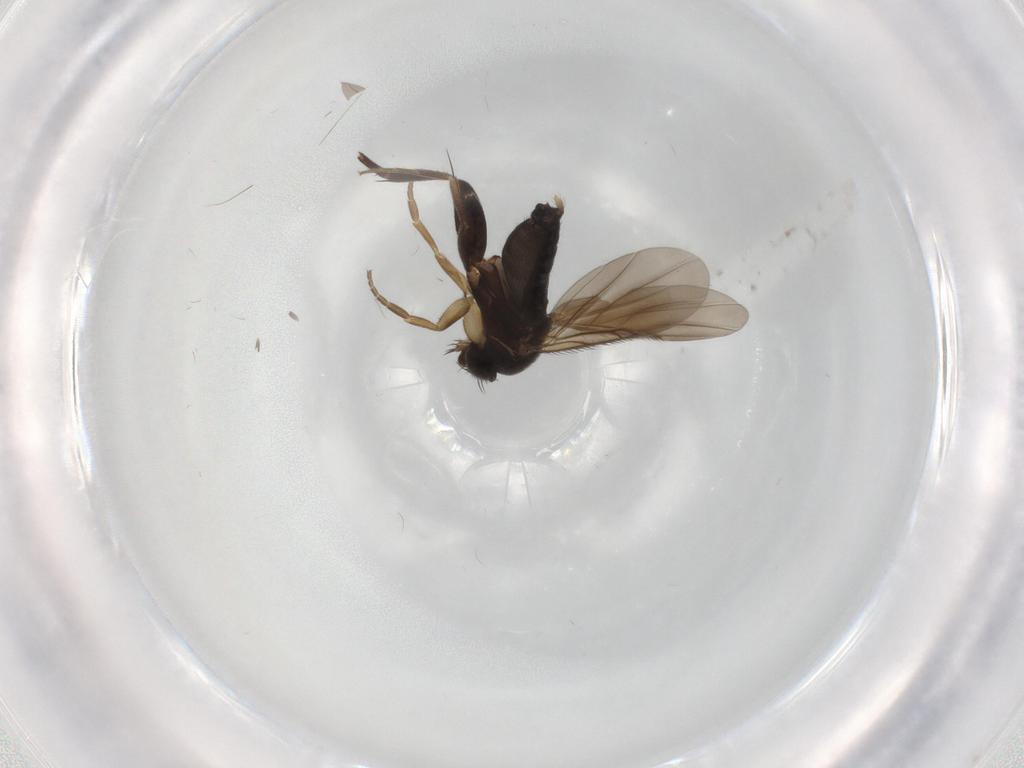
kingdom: Animalia
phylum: Arthropoda
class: Insecta
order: Diptera
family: Phoridae
